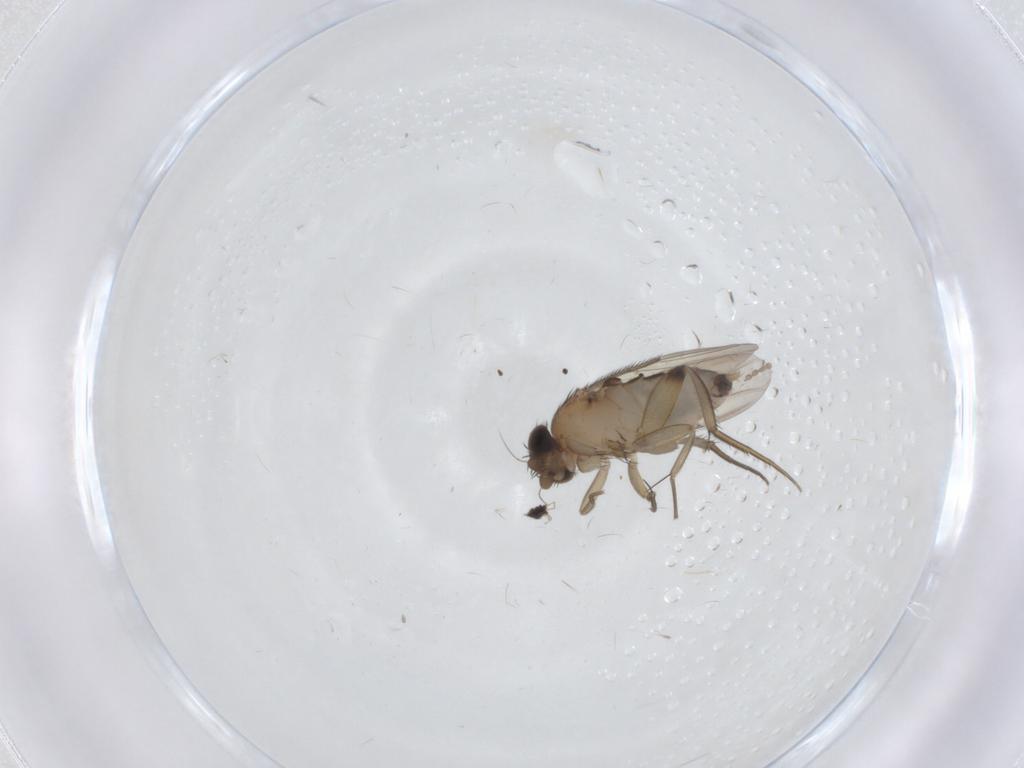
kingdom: Animalia
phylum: Arthropoda
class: Insecta
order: Diptera
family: Phoridae
